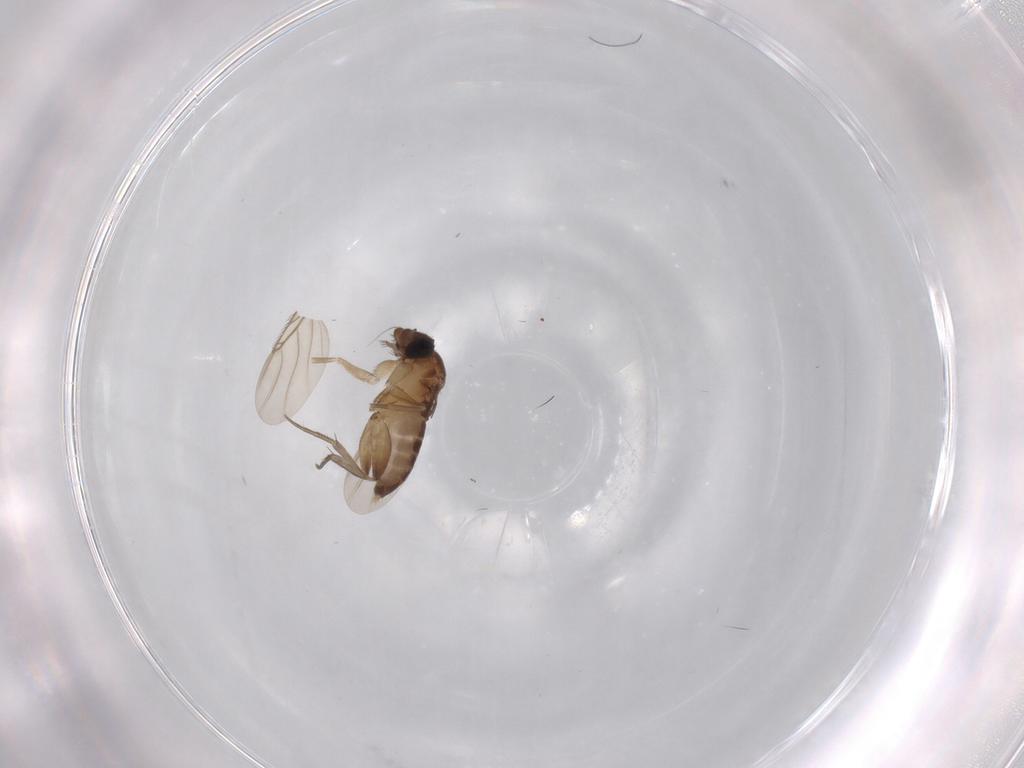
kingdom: Animalia
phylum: Arthropoda
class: Insecta
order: Diptera
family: Phoridae
